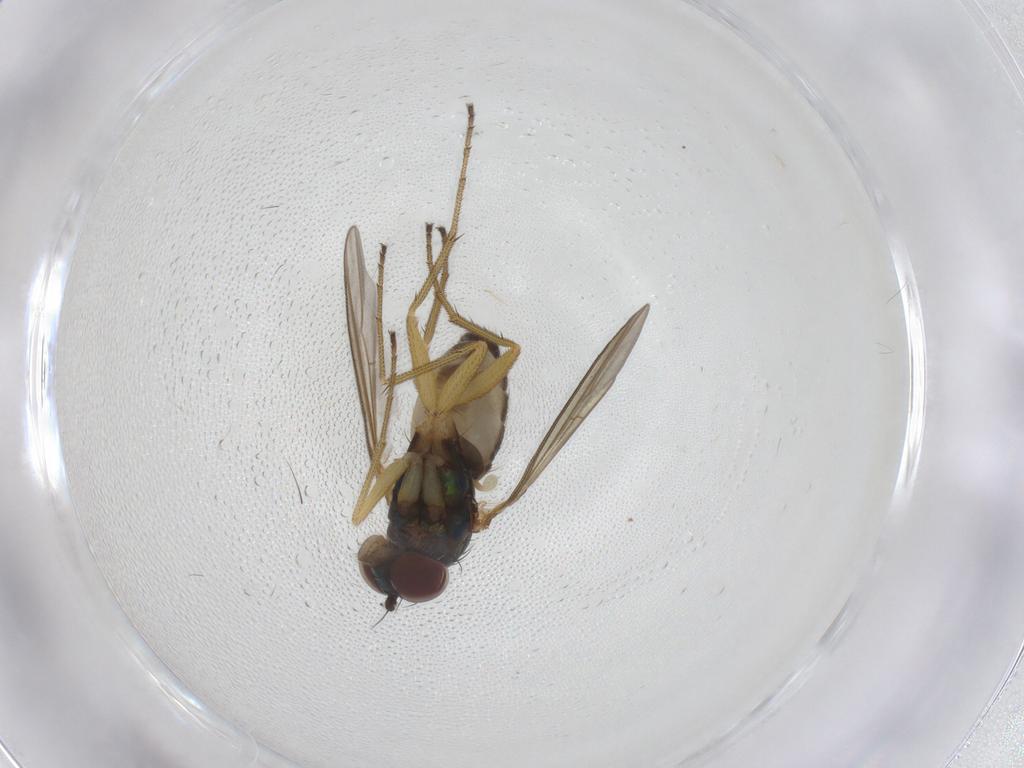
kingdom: Animalia
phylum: Arthropoda
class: Insecta
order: Diptera
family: Dolichopodidae
